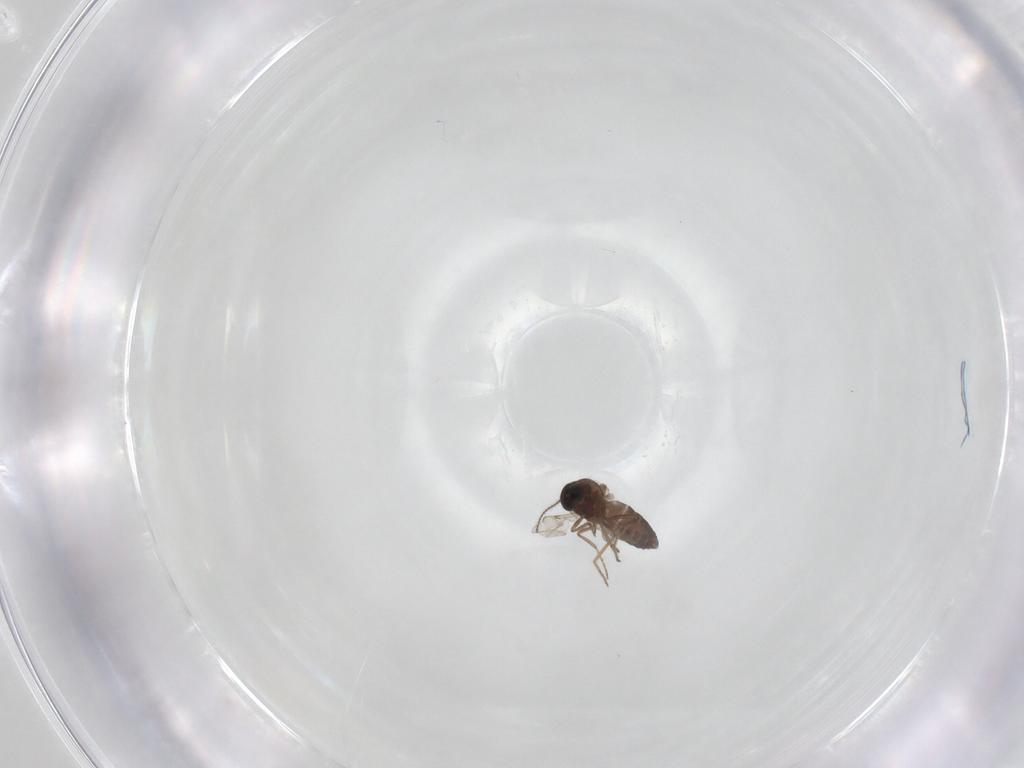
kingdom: Animalia
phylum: Arthropoda
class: Insecta
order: Diptera
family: Ceratopogonidae
